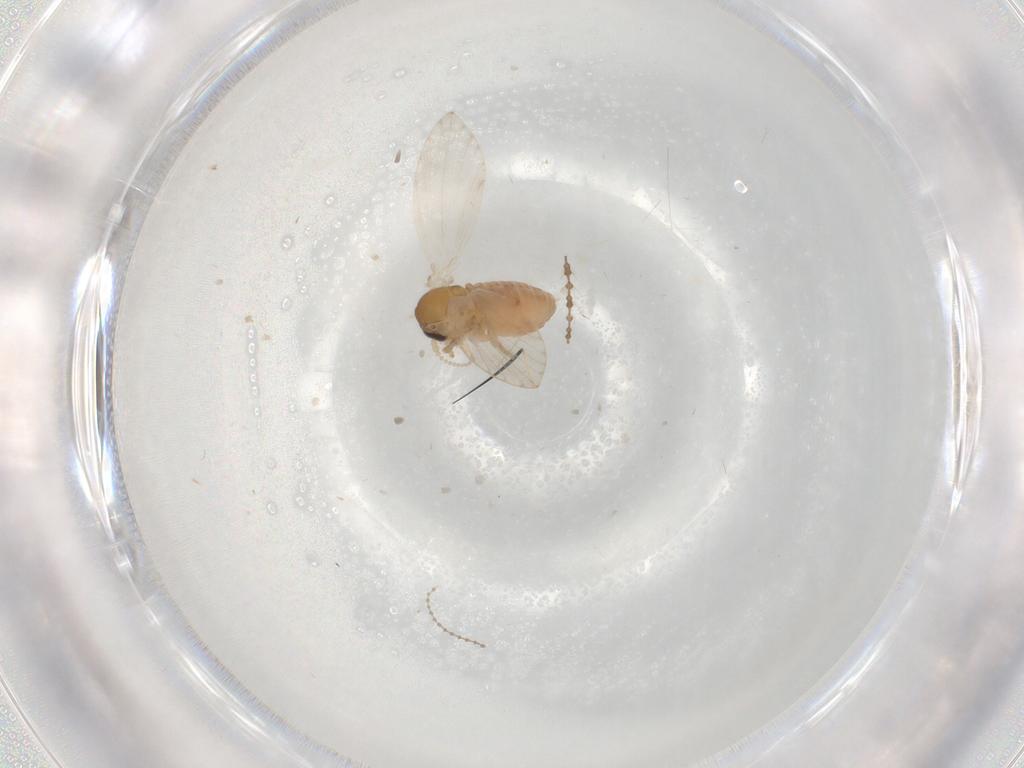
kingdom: Animalia
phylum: Arthropoda
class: Insecta
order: Diptera
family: Psychodidae
